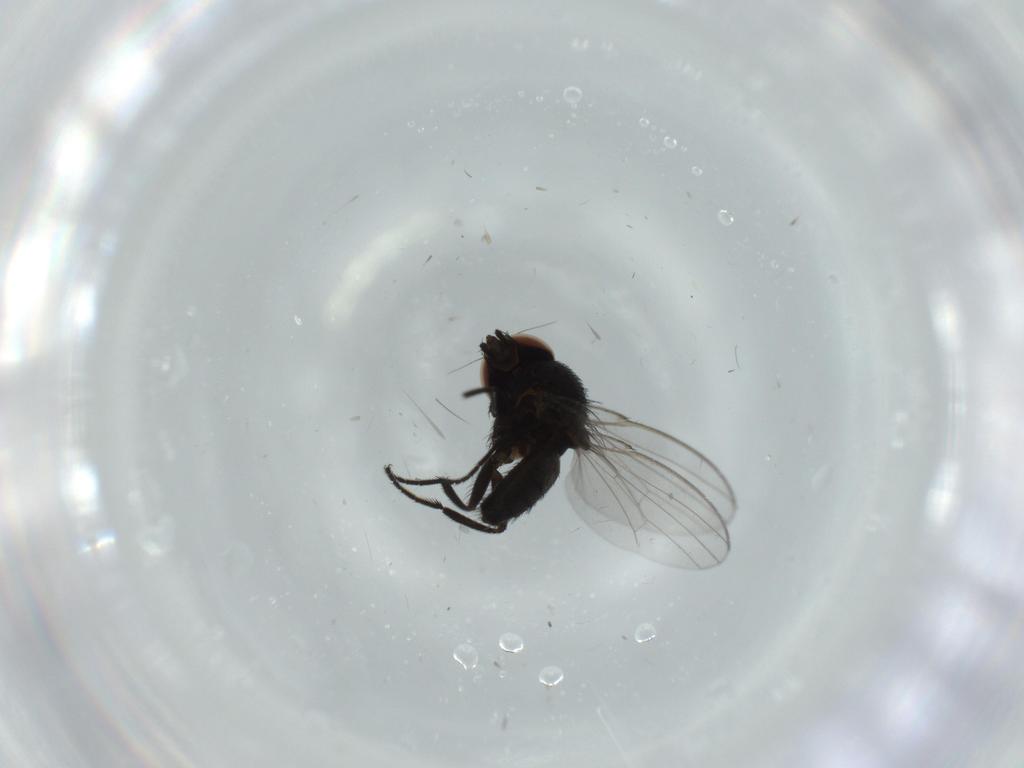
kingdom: Animalia
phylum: Arthropoda
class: Insecta
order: Diptera
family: Milichiidae
